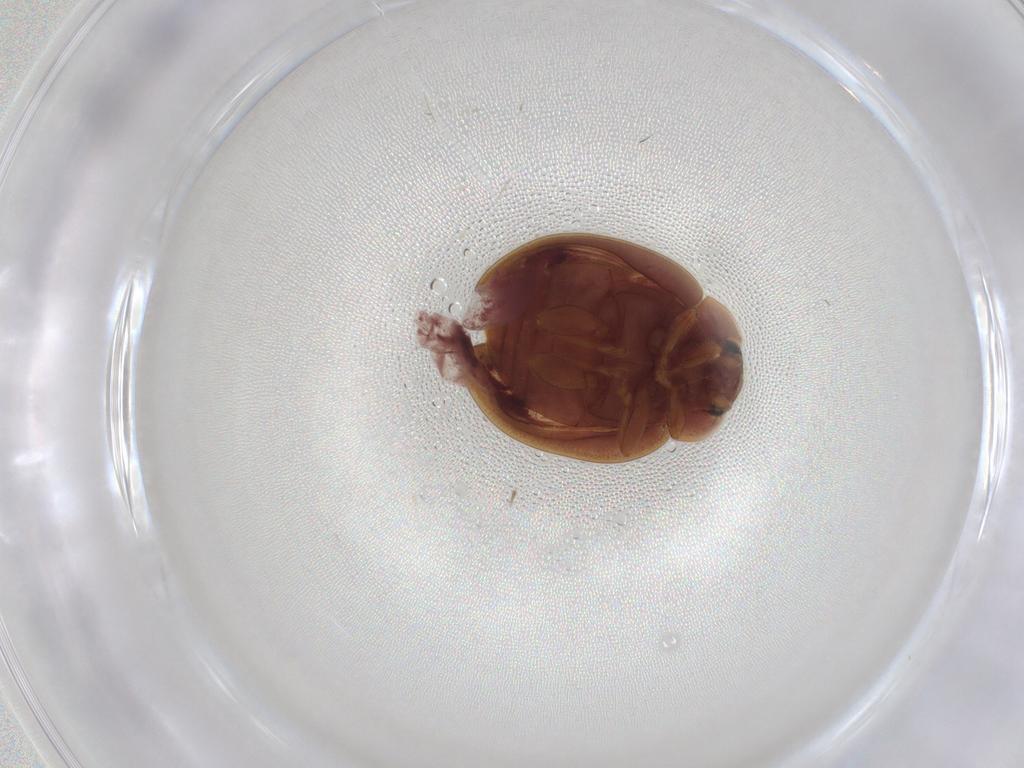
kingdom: Animalia
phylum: Arthropoda
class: Insecta
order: Coleoptera
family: Coccinellidae
